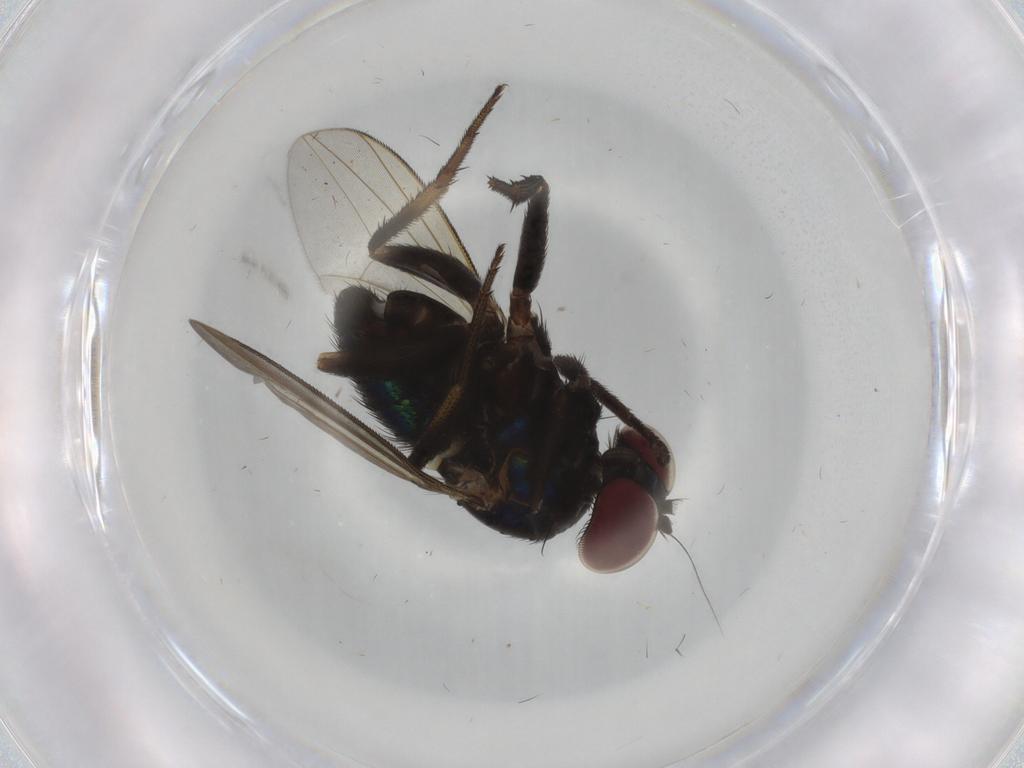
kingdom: Animalia
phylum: Arthropoda
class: Insecta
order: Diptera
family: Dolichopodidae
